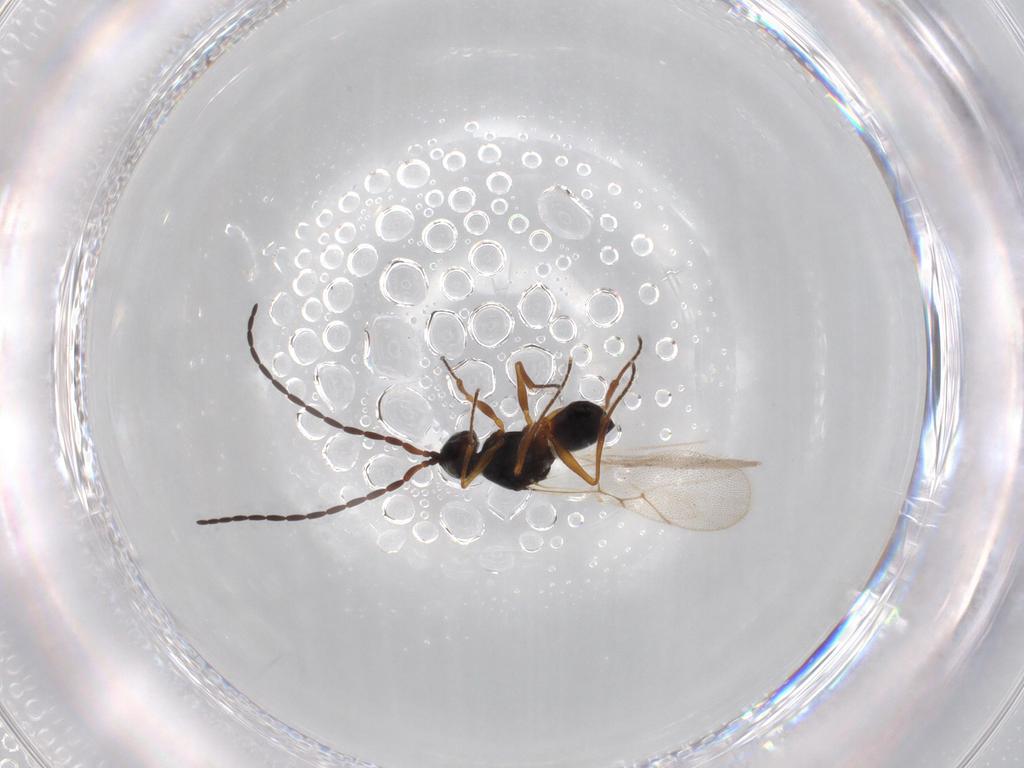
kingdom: Animalia
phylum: Arthropoda
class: Insecta
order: Hymenoptera
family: Figitidae
